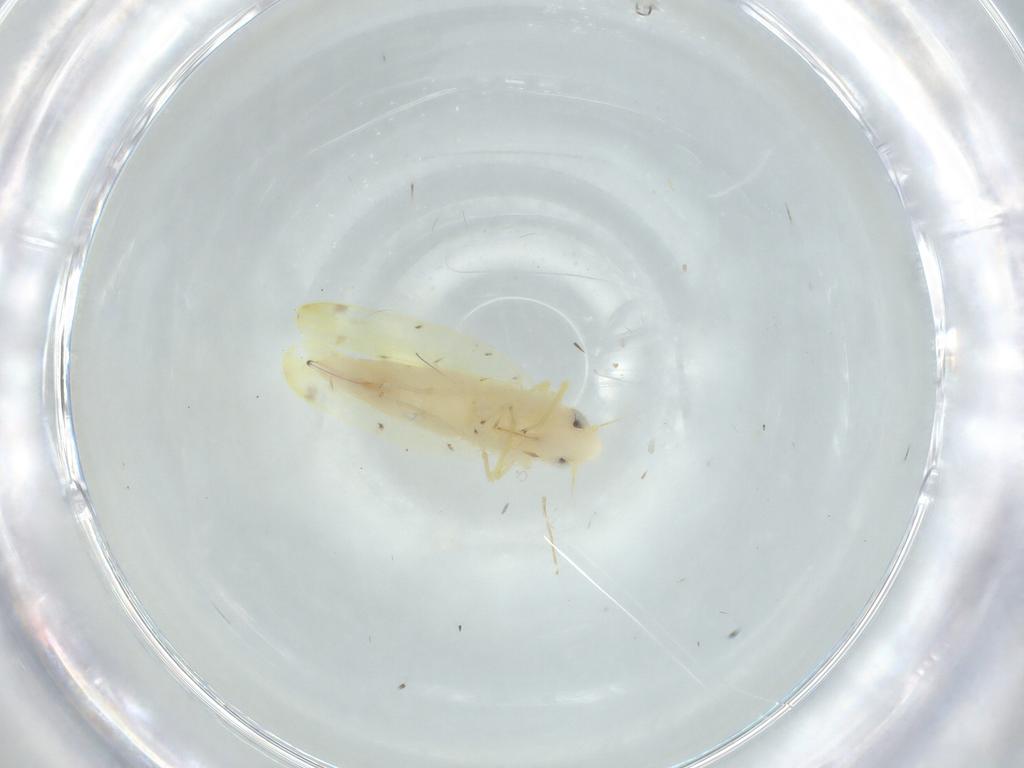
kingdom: Animalia
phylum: Arthropoda
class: Insecta
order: Hemiptera
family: Cicadellidae
